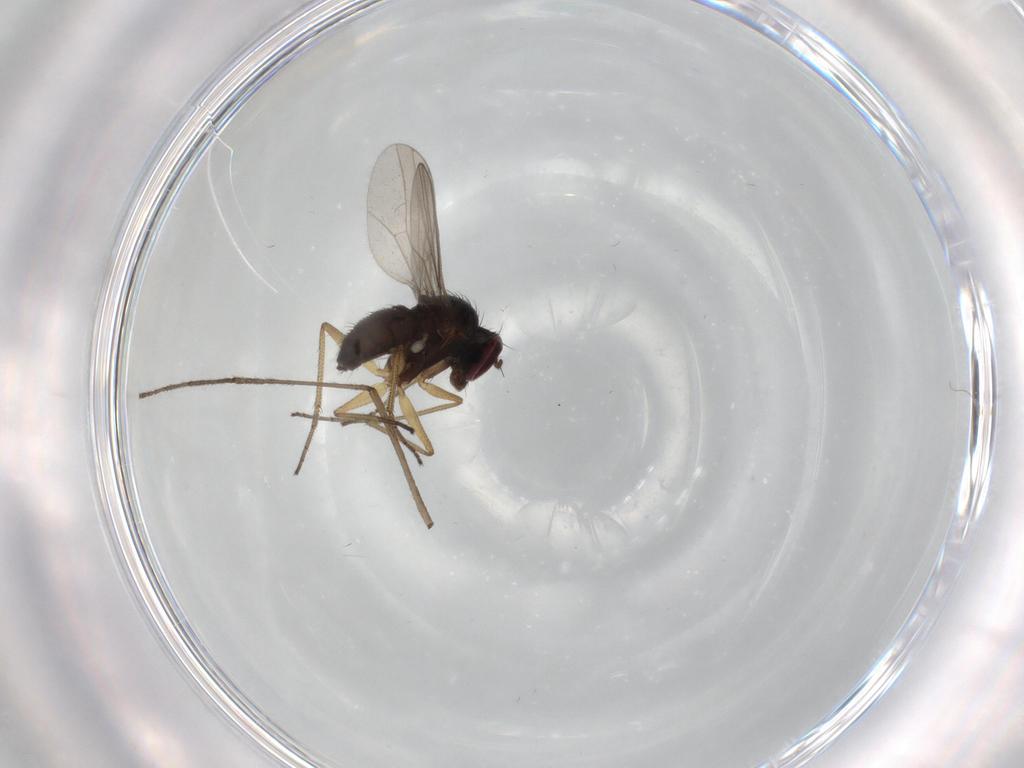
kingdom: Animalia
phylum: Arthropoda
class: Insecta
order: Diptera
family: Dolichopodidae
